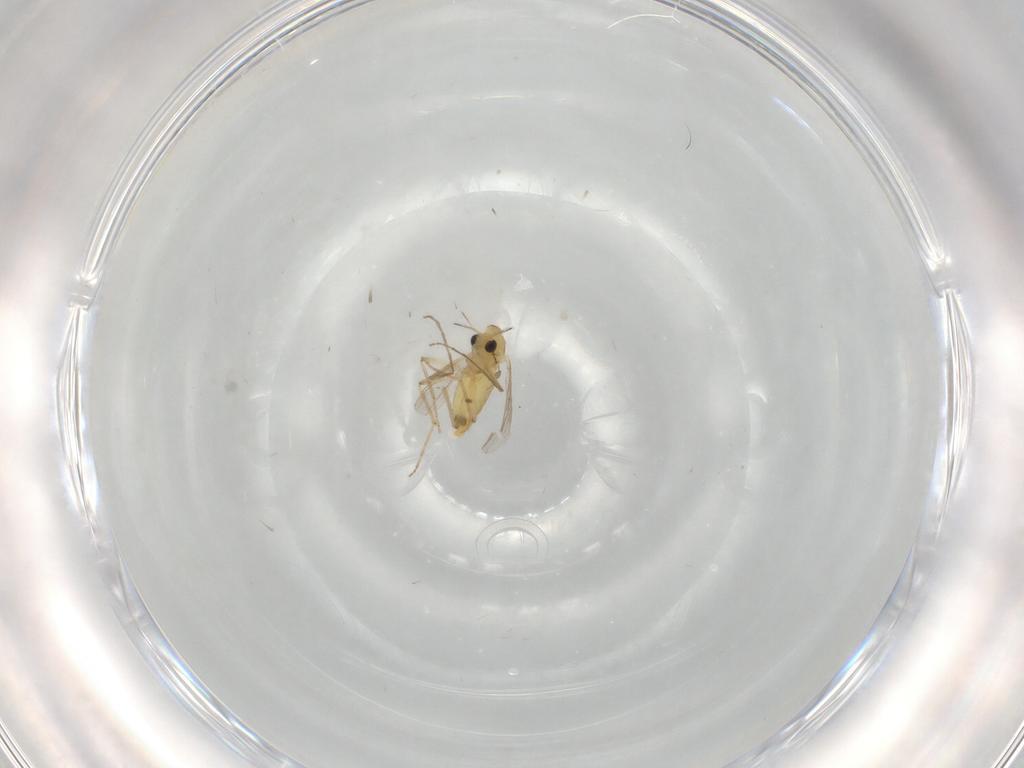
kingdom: Animalia
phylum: Arthropoda
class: Insecta
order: Diptera
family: Chironomidae
